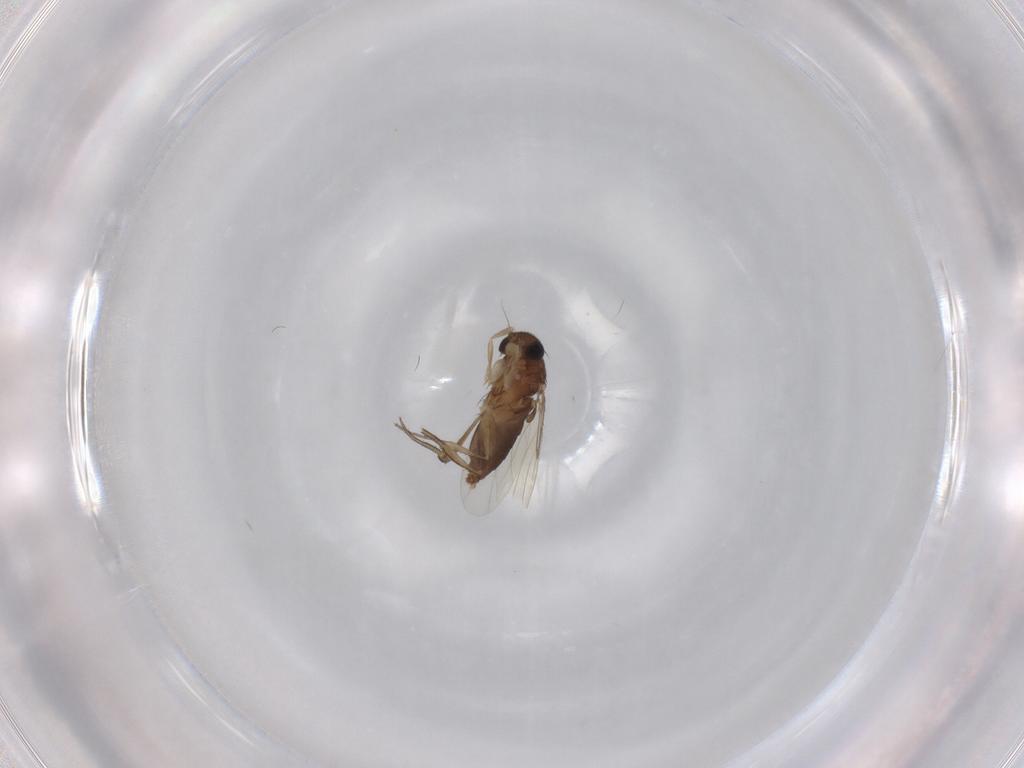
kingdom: Animalia
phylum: Arthropoda
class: Insecta
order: Diptera
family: Phoridae
